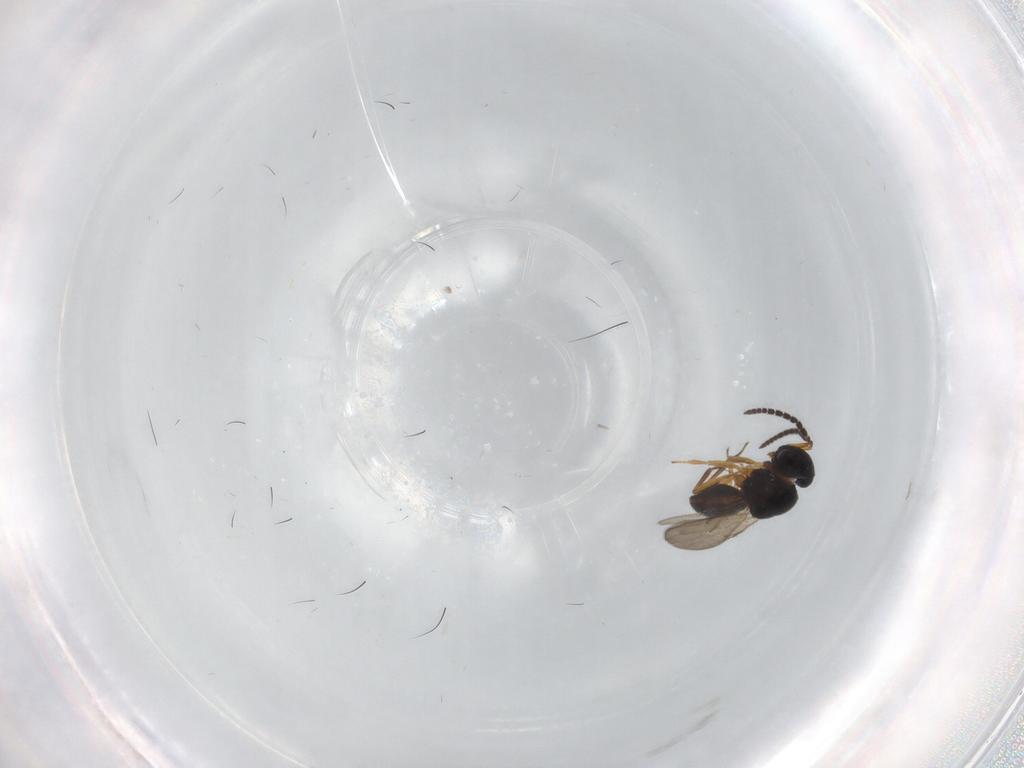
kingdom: Animalia
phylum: Arthropoda
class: Insecta
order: Hymenoptera
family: Scelionidae
